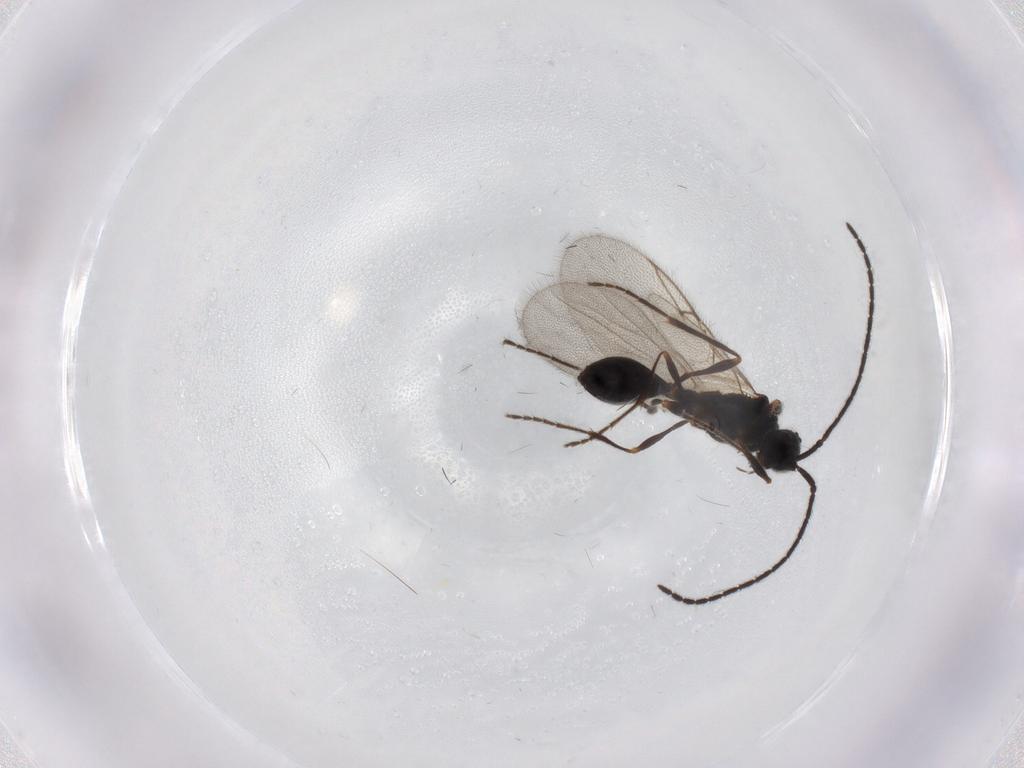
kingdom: Animalia
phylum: Arthropoda
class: Insecta
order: Hymenoptera
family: Diapriidae
